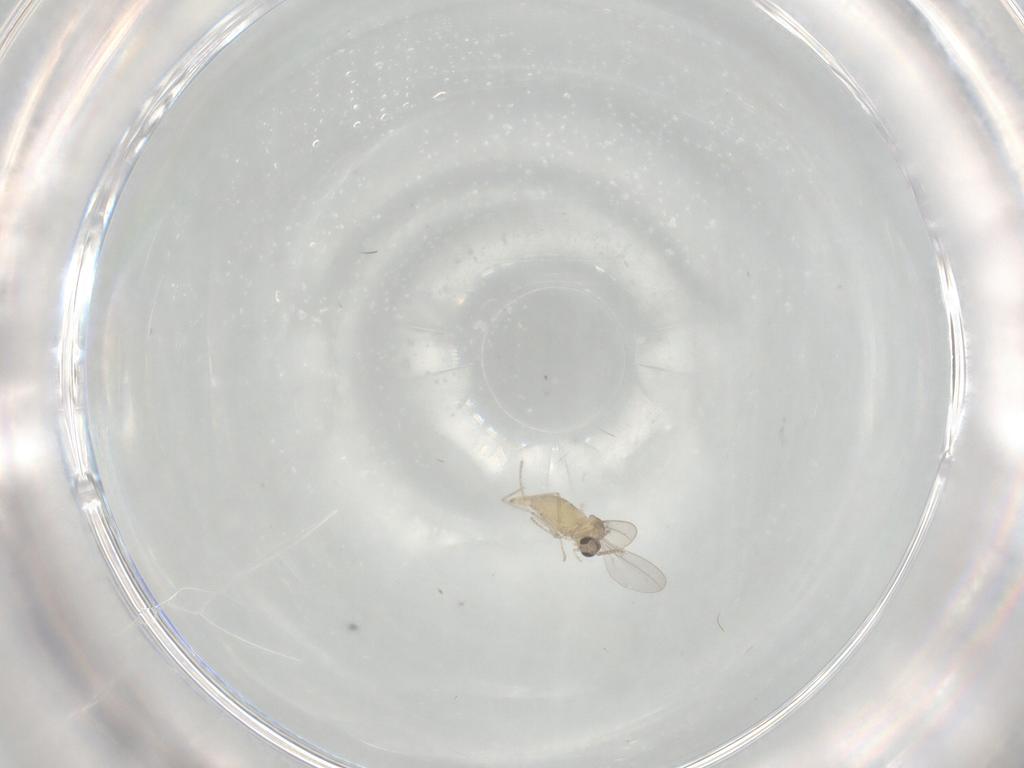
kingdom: Animalia
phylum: Arthropoda
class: Insecta
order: Diptera
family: Cecidomyiidae
